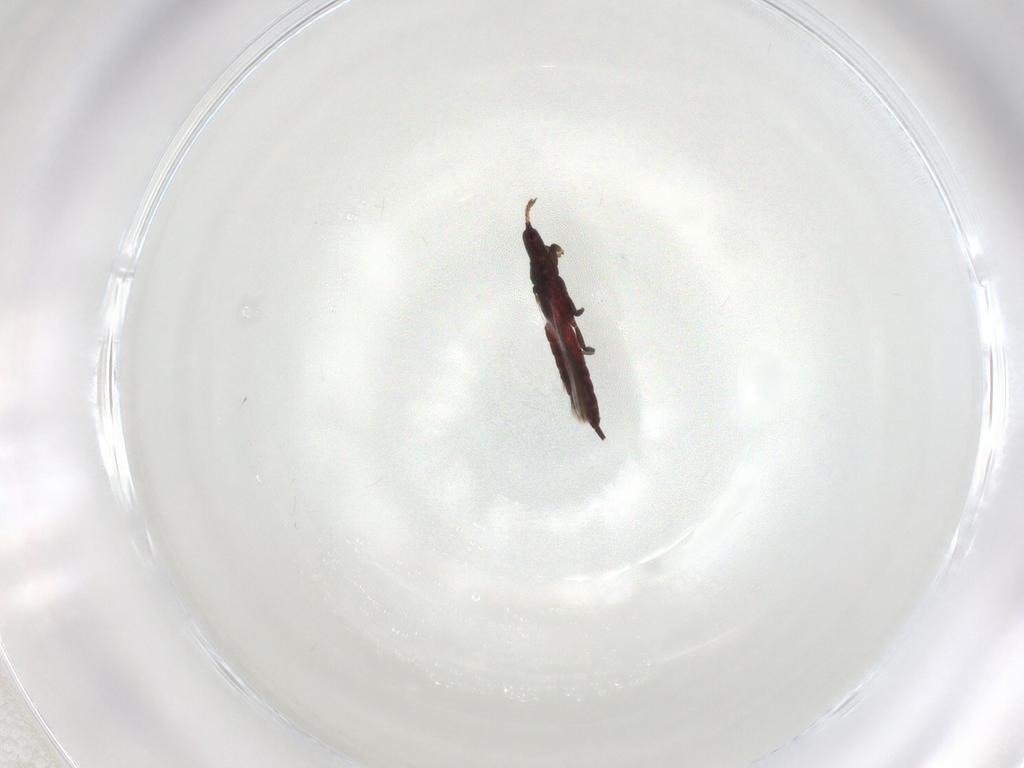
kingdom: Animalia
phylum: Arthropoda
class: Insecta
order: Thysanoptera
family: Phlaeothripidae
